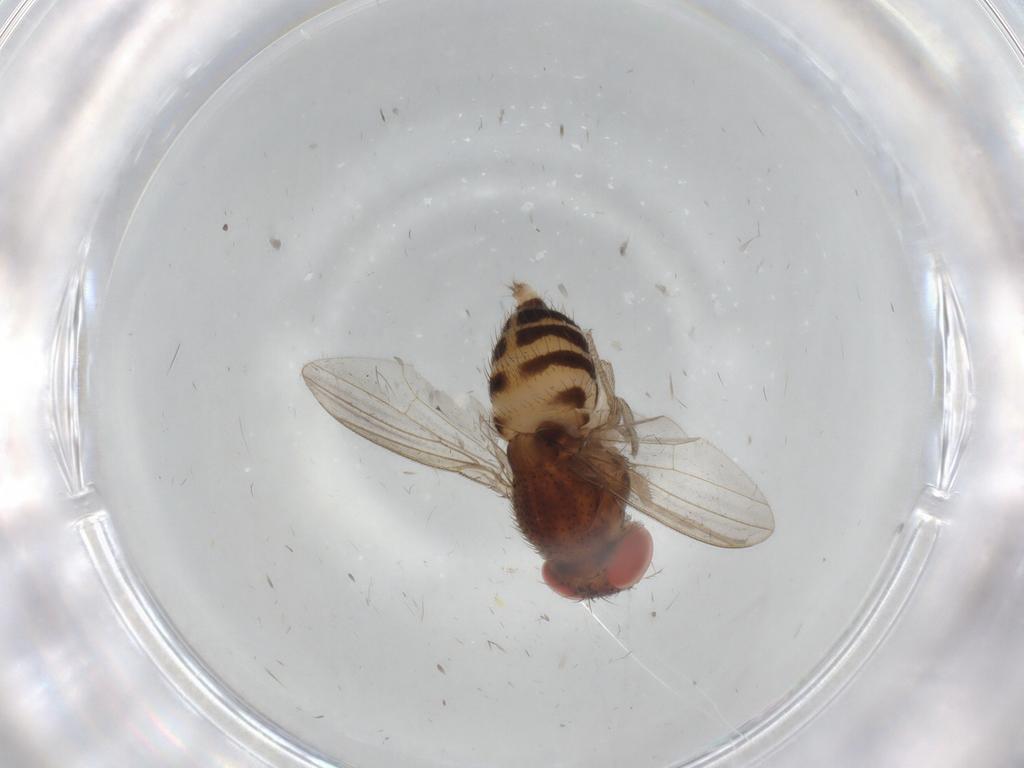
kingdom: Animalia
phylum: Arthropoda
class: Insecta
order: Diptera
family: Drosophilidae
